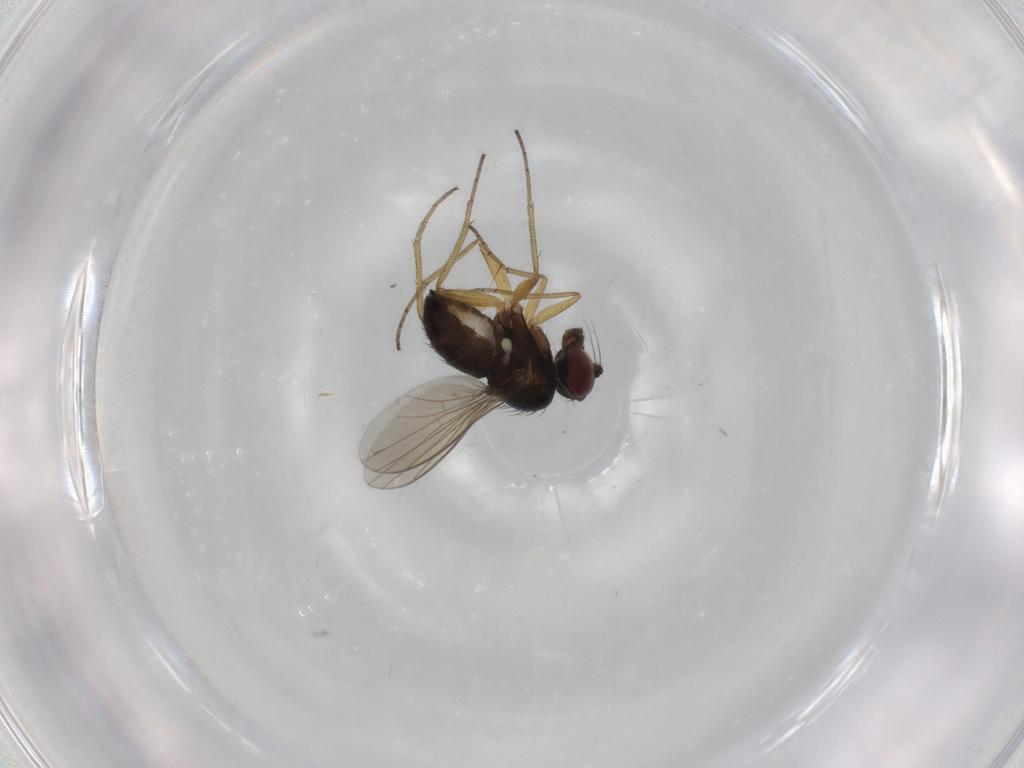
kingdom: Animalia
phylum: Arthropoda
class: Insecta
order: Diptera
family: Dolichopodidae
